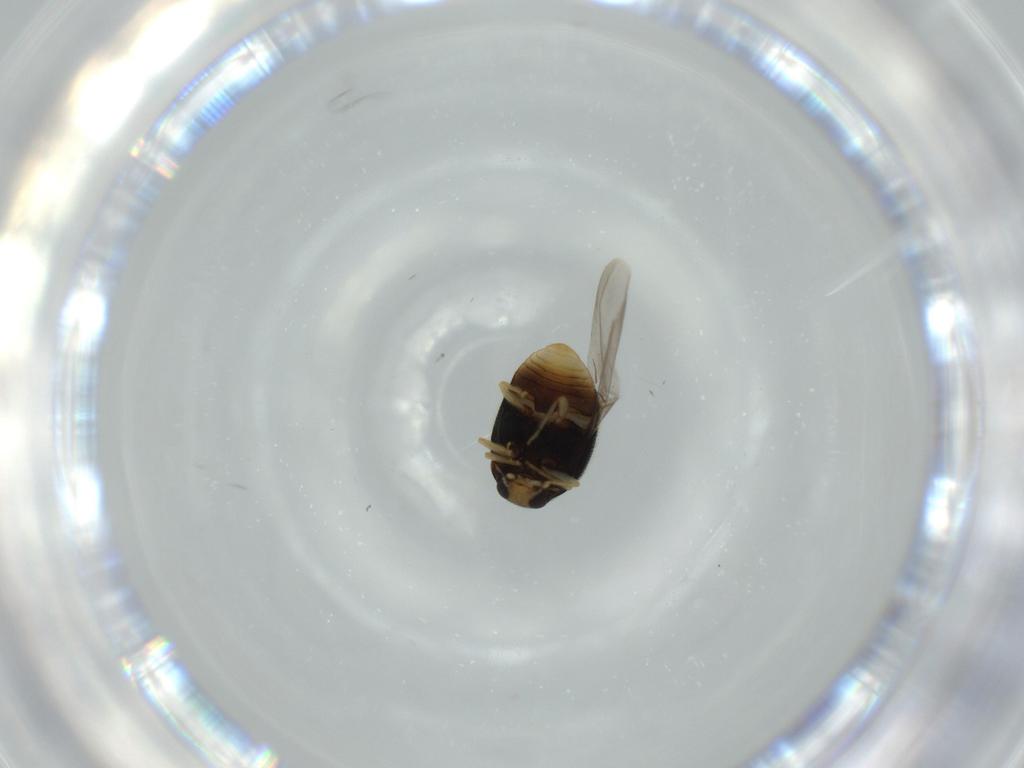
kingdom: Animalia
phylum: Arthropoda
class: Insecta
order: Coleoptera
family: Coccinellidae
